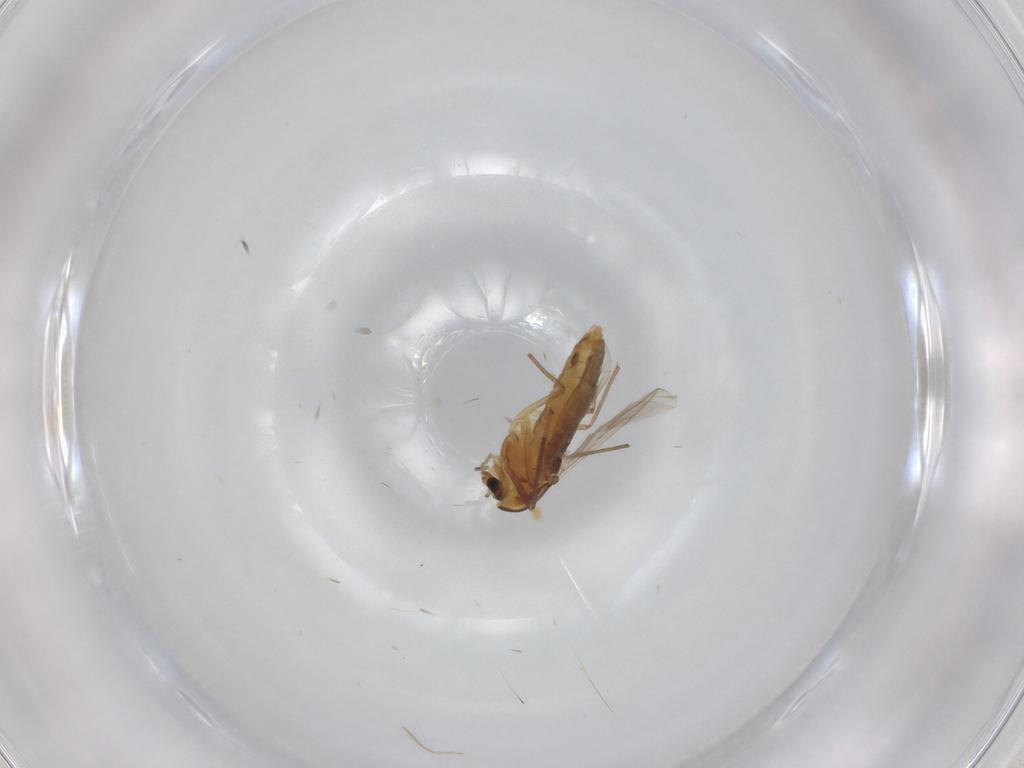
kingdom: Animalia
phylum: Arthropoda
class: Insecta
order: Diptera
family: Chironomidae
